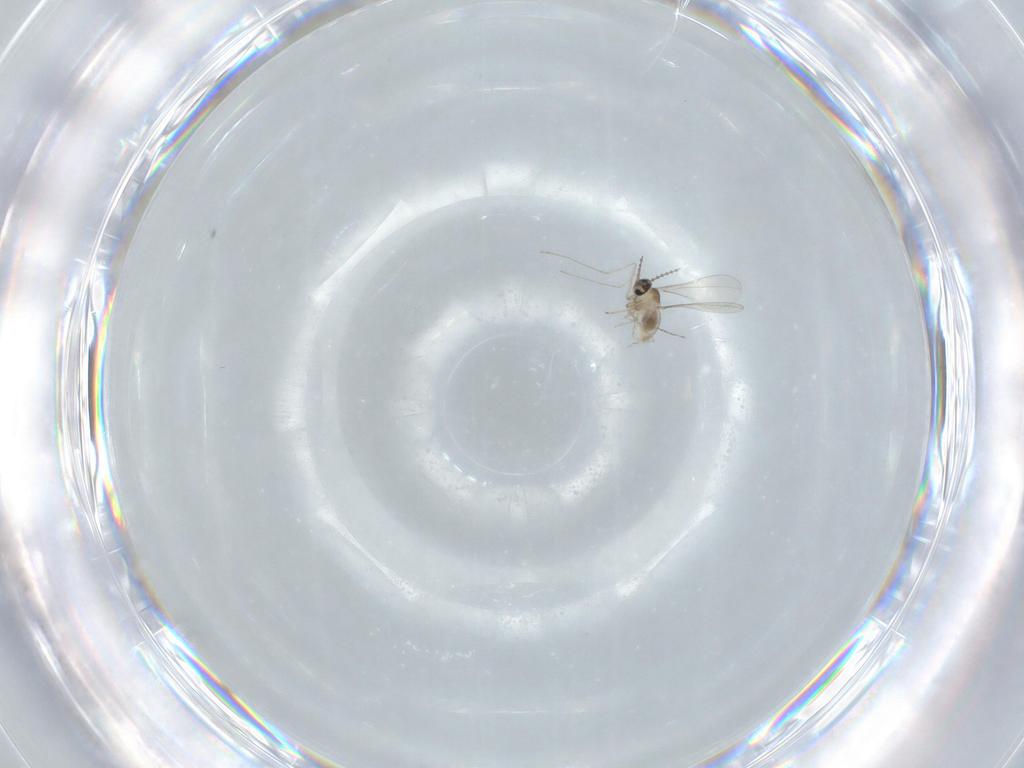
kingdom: Animalia
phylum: Arthropoda
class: Insecta
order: Diptera
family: Cecidomyiidae
